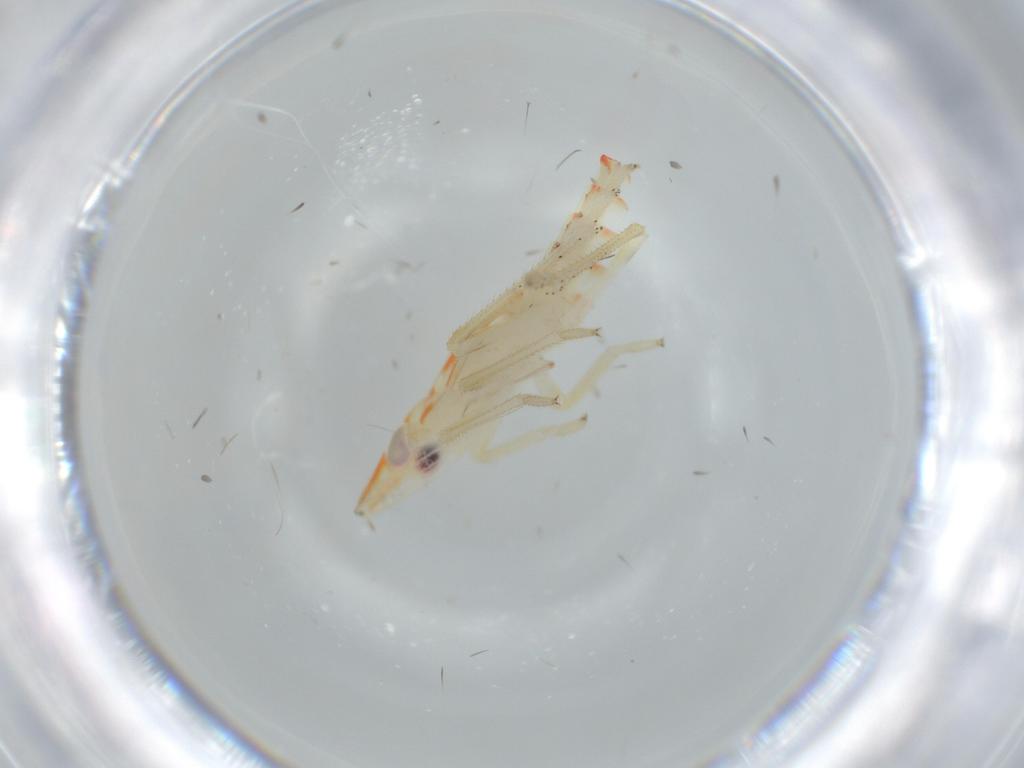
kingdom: Animalia
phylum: Arthropoda
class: Insecta
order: Hemiptera
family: Tropiduchidae
